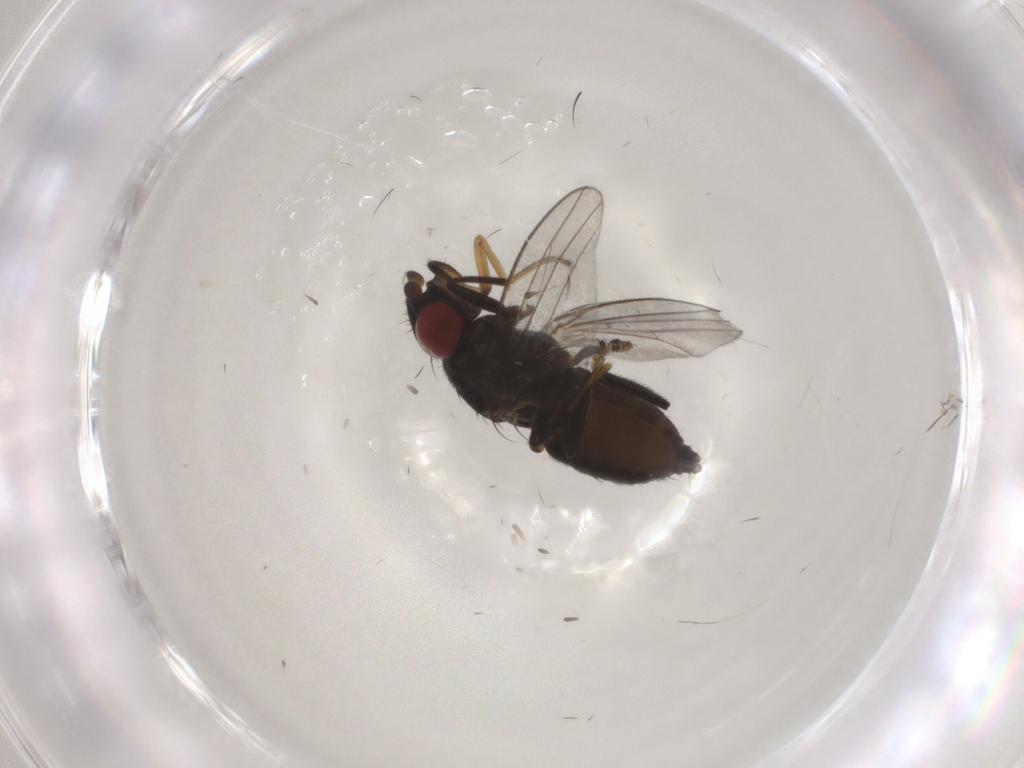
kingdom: Animalia
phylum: Arthropoda
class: Insecta
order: Diptera
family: Milichiidae
